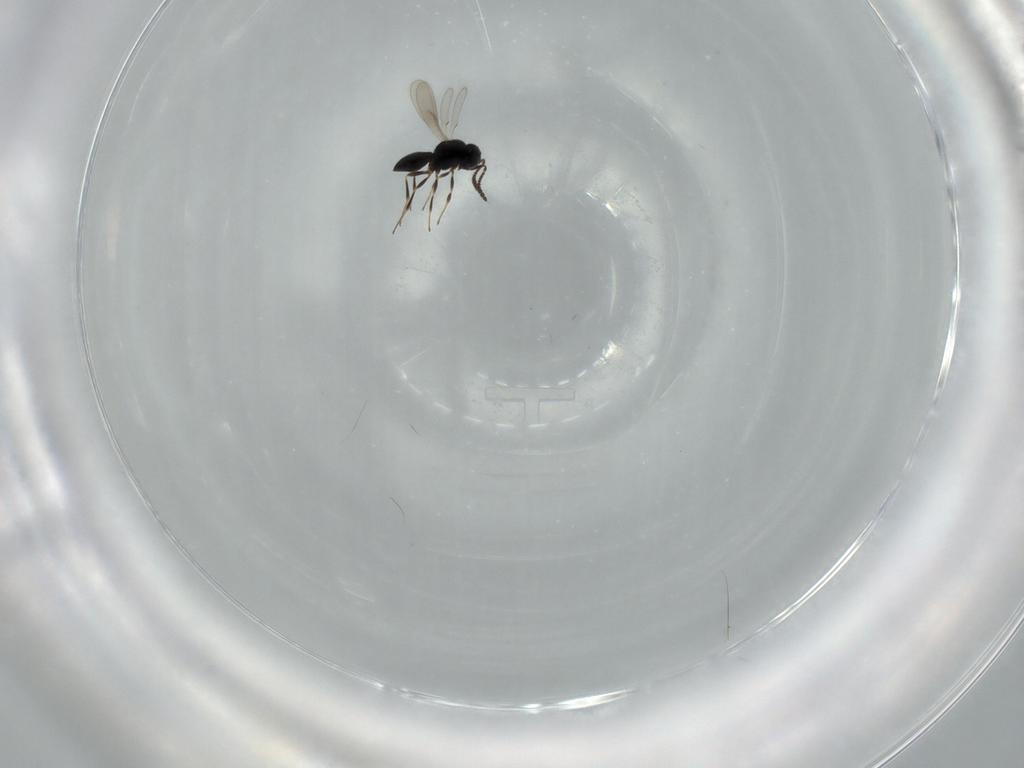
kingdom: Animalia
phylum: Arthropoda
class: Insecta
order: Hymenoptera
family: Scelionidae
